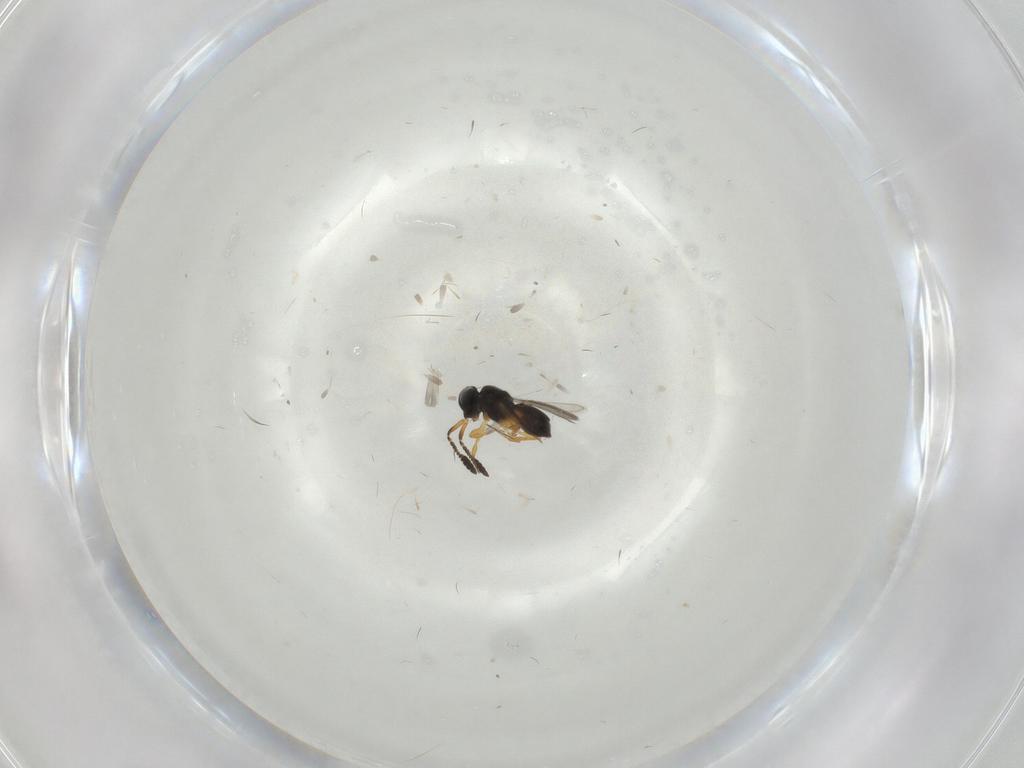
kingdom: Animalia
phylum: Arthropoda
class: Insecta
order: Hymenoptera
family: Scelionidae
